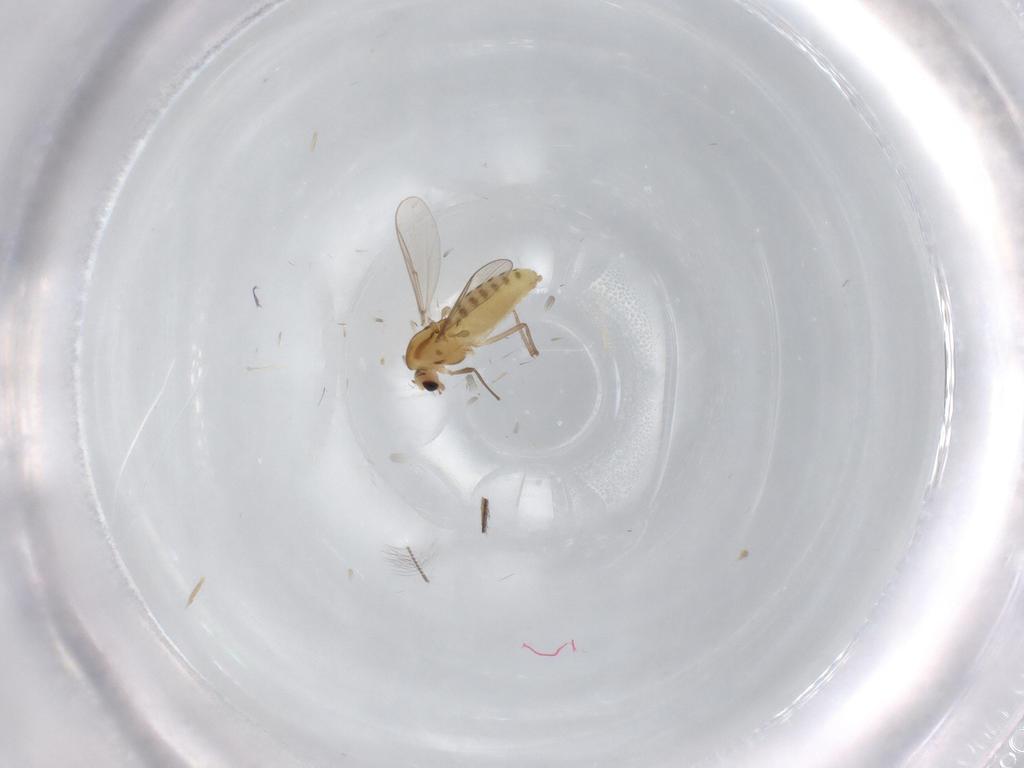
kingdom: Animalia
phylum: Arthropoda
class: Insecta
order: Diptera
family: Chironomidae
